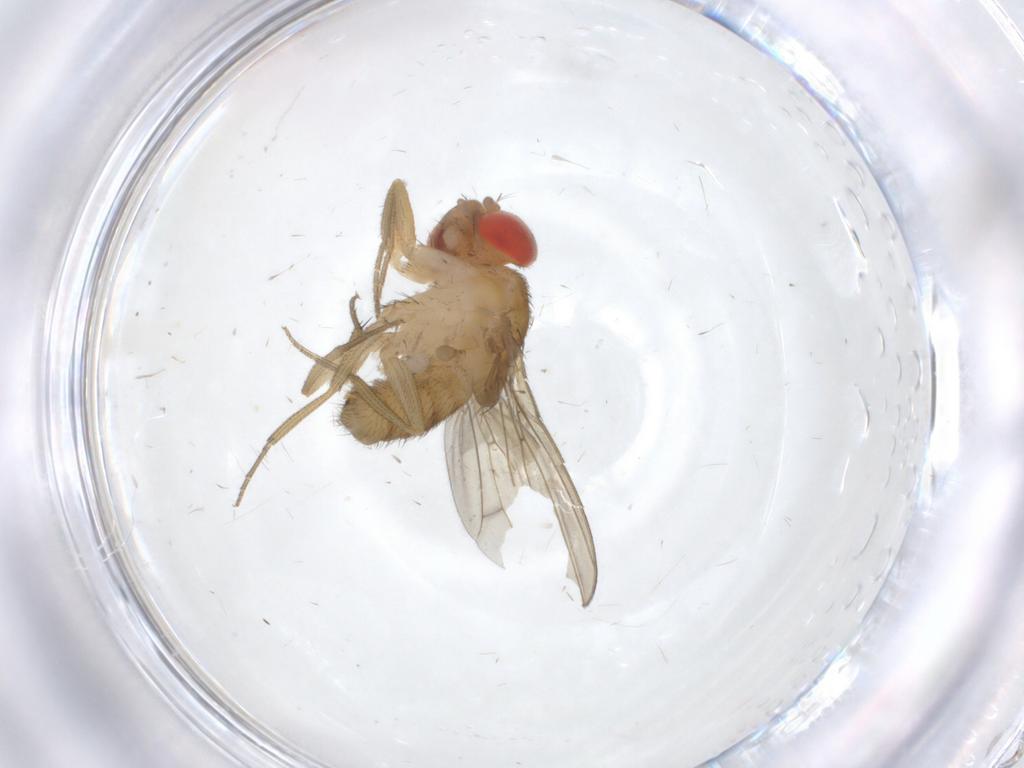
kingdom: Animalia
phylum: Arthropoda
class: Insecta
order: Diptera
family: Drosophilidae
